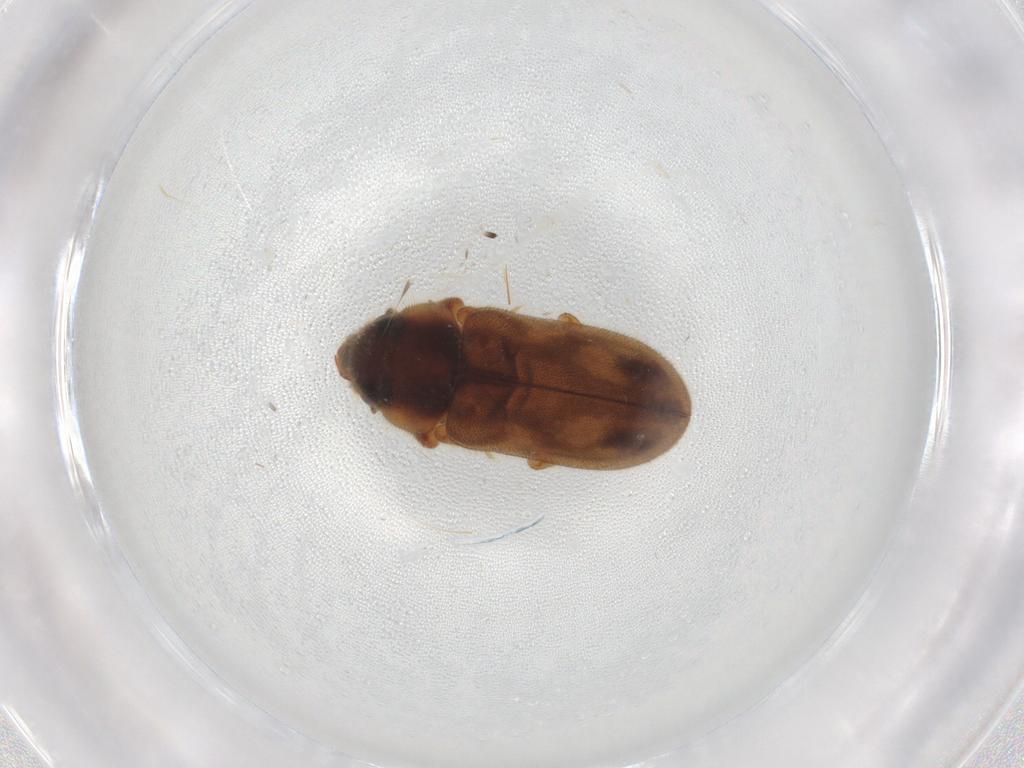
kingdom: Animalia
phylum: Arthropoda
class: Insecta
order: Coleoptera
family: Heteroceridae
